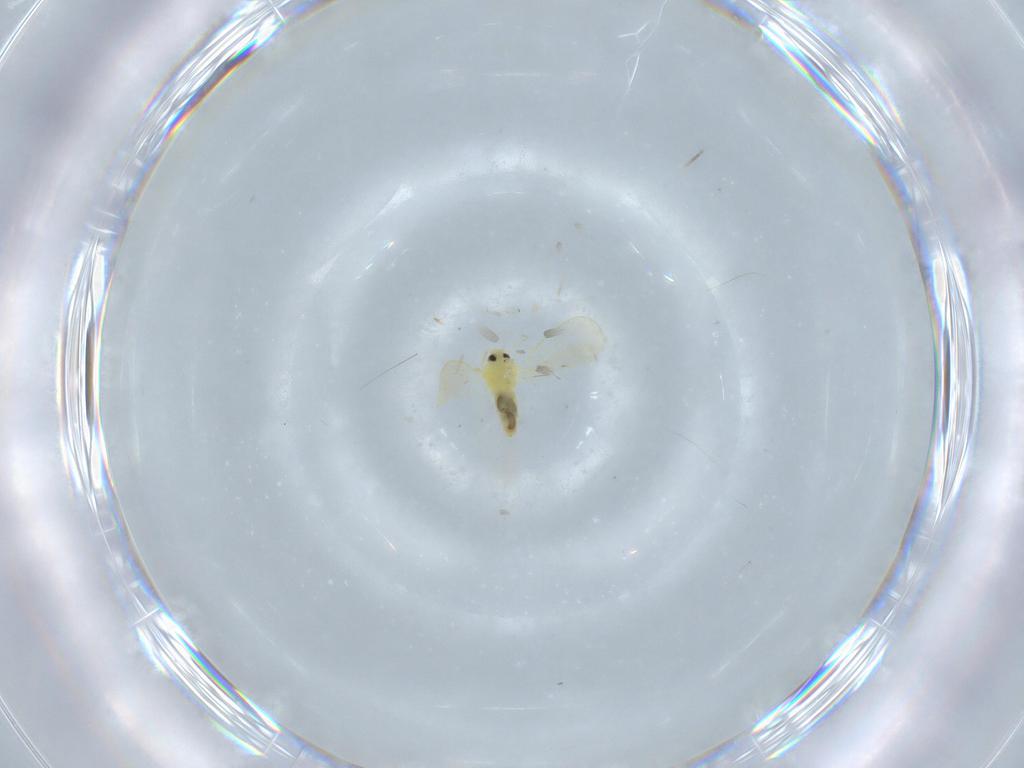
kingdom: Animalia
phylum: Arthropoda
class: Insecta
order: Hemiptera
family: Aleyrodidae
